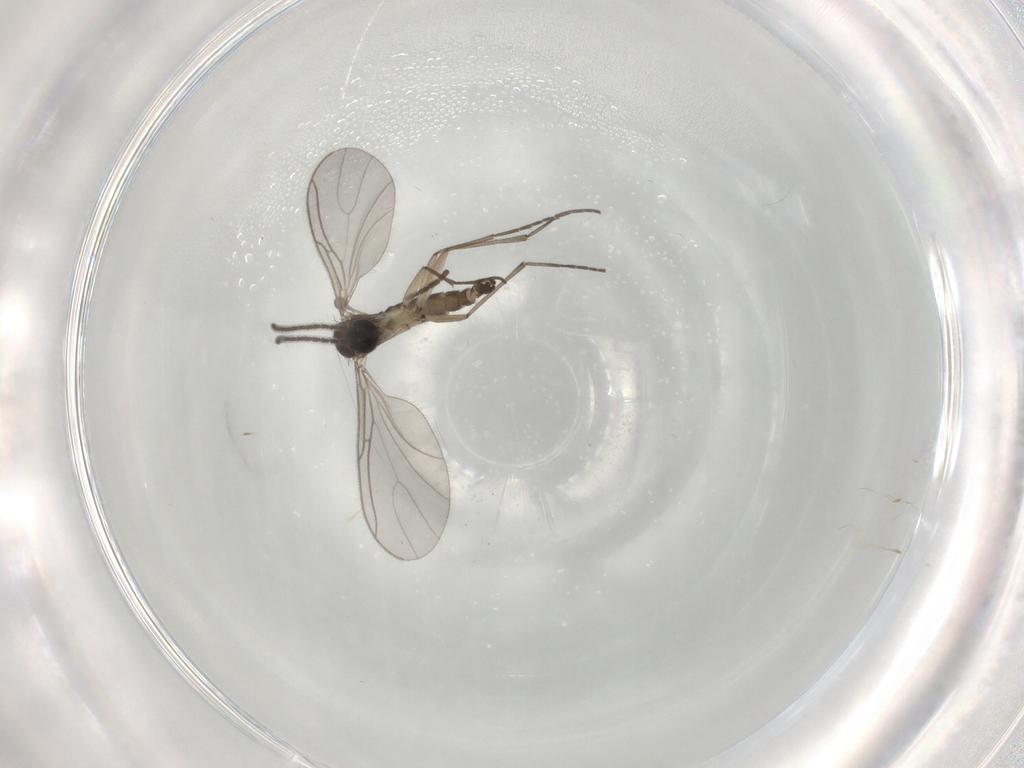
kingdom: Animalia
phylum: Arthropoda
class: Insecta
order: Diptera
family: Sciaridae
